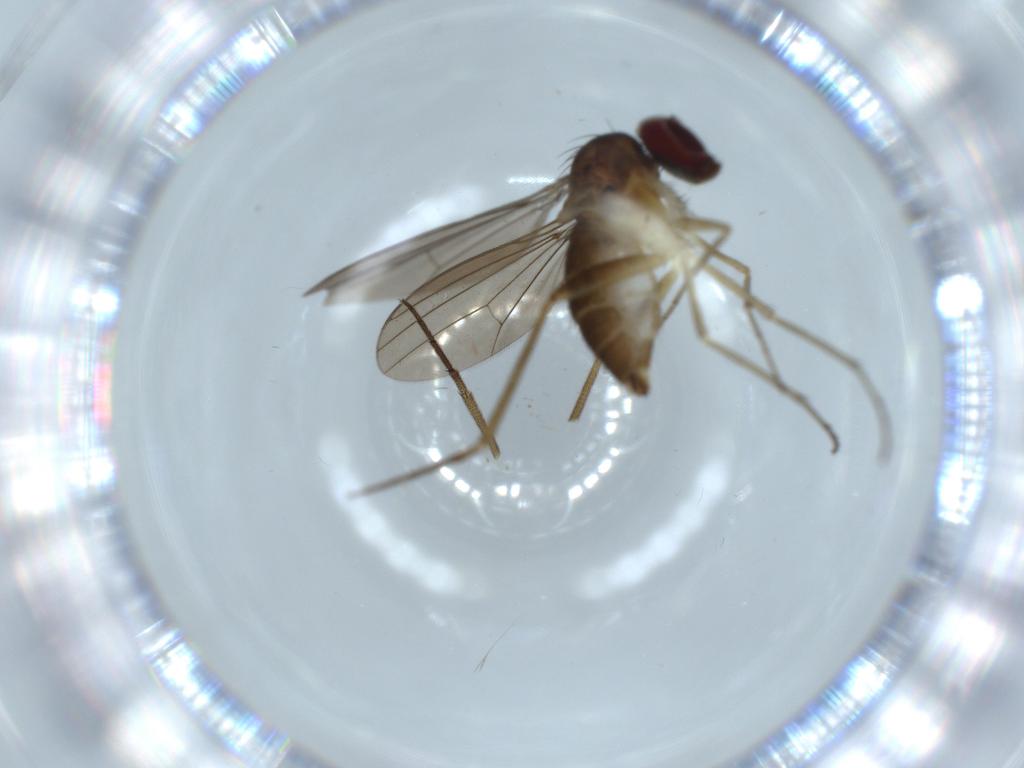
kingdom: Animalia
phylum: Arthropoda
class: Insecta
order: Diptera
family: Dolichopodidae
